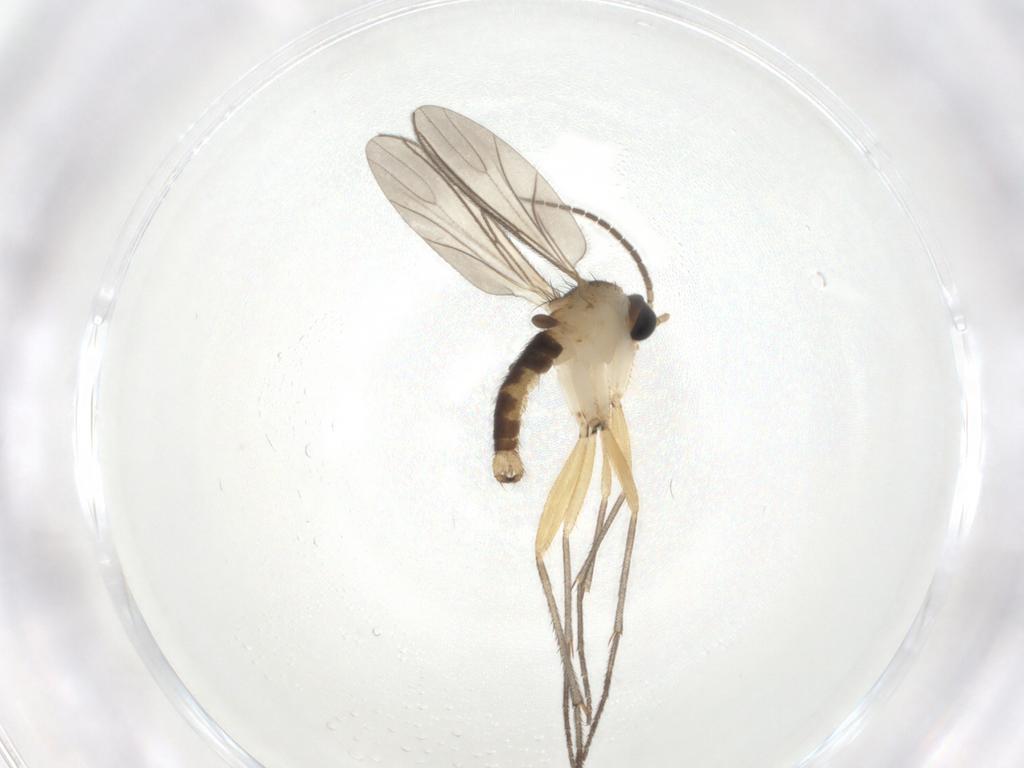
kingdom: Animalia
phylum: Arthropoda
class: Insecta
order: Diptera
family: Sciaridae
